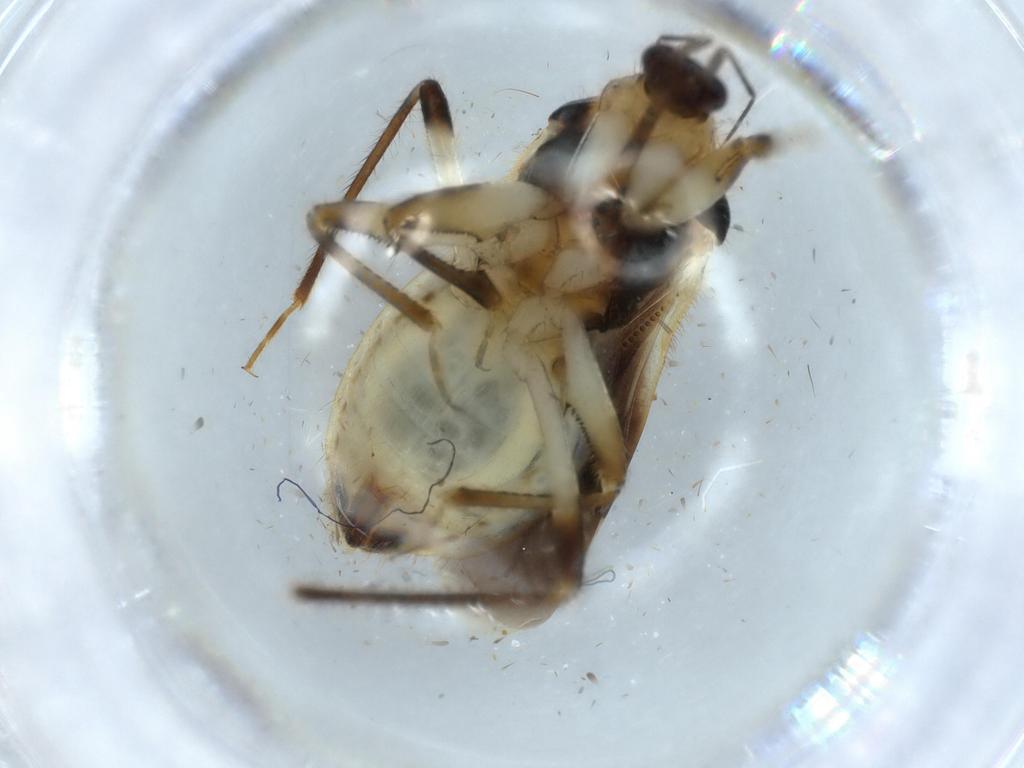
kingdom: Animalia
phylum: Arthropoda
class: Insecta
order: Hemiptera
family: Nabidae
